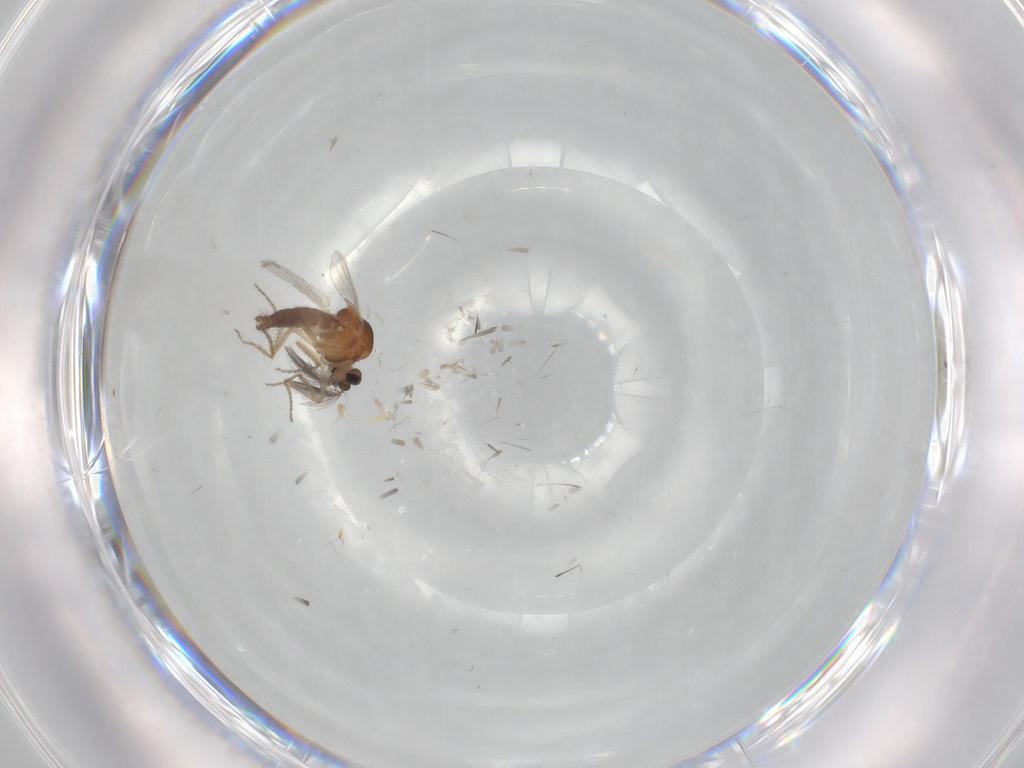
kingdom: Animalia
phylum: Arthropoda
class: Insecta
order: Diptera
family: Ceratopogonidae
